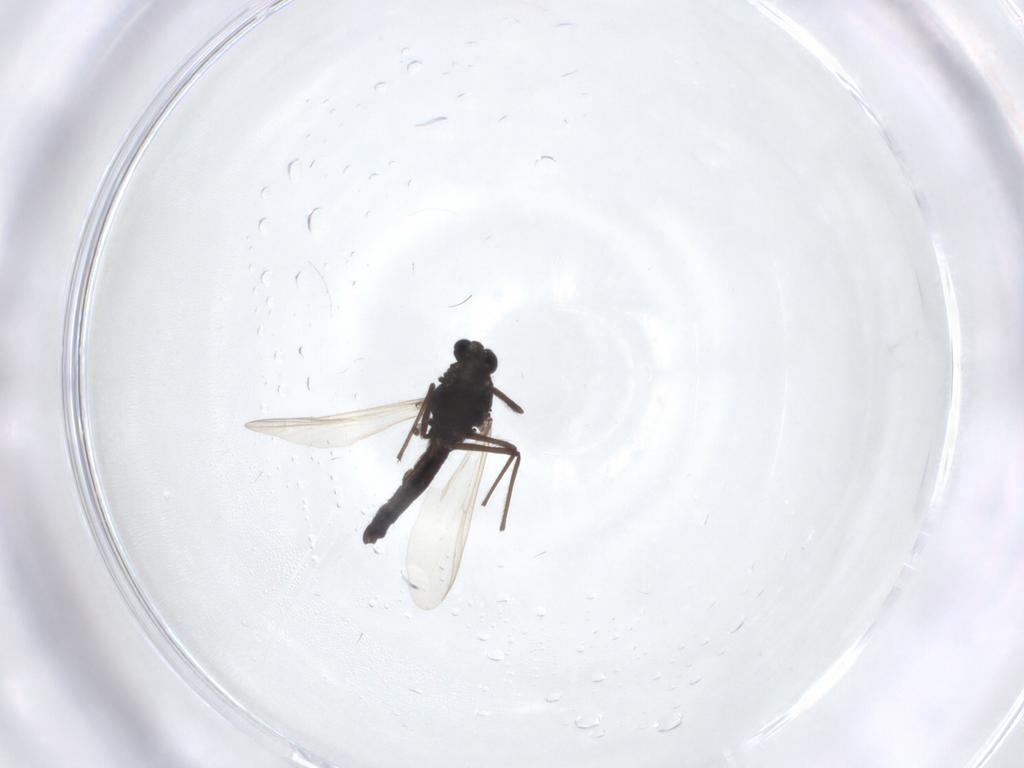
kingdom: Animalia
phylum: Arthropoda
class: Insecta
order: Diptera
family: Chironomidae
